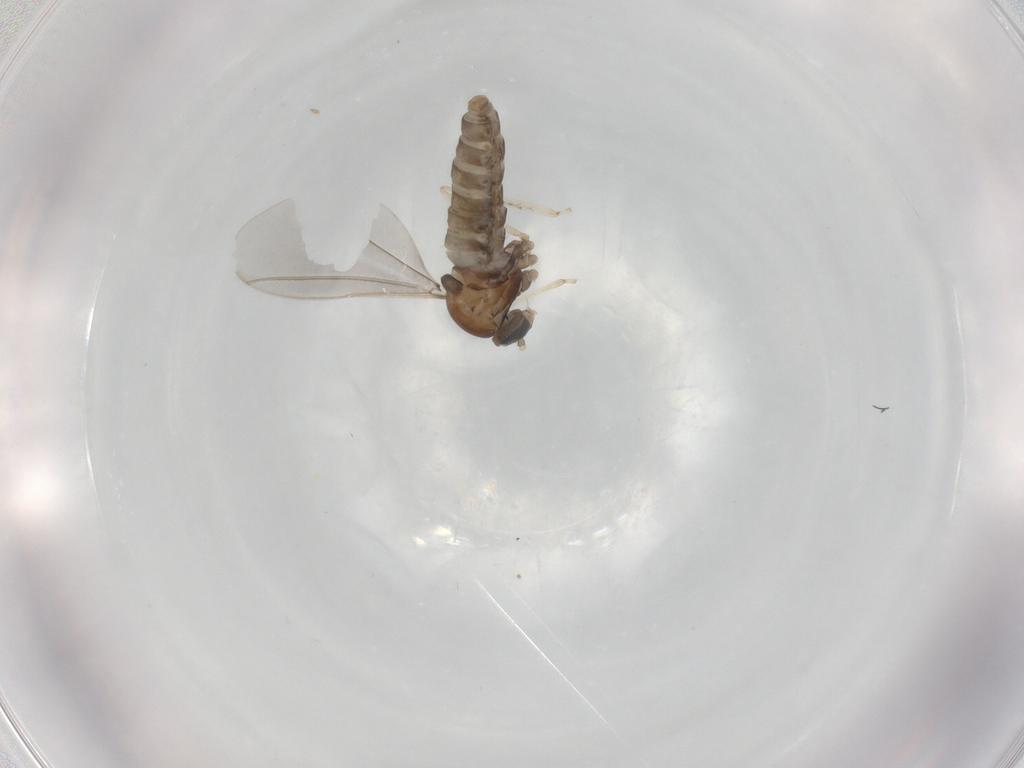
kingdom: Animalia
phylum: Arthropoda
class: Insecta
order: Diptera
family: Cecidomyiidae
